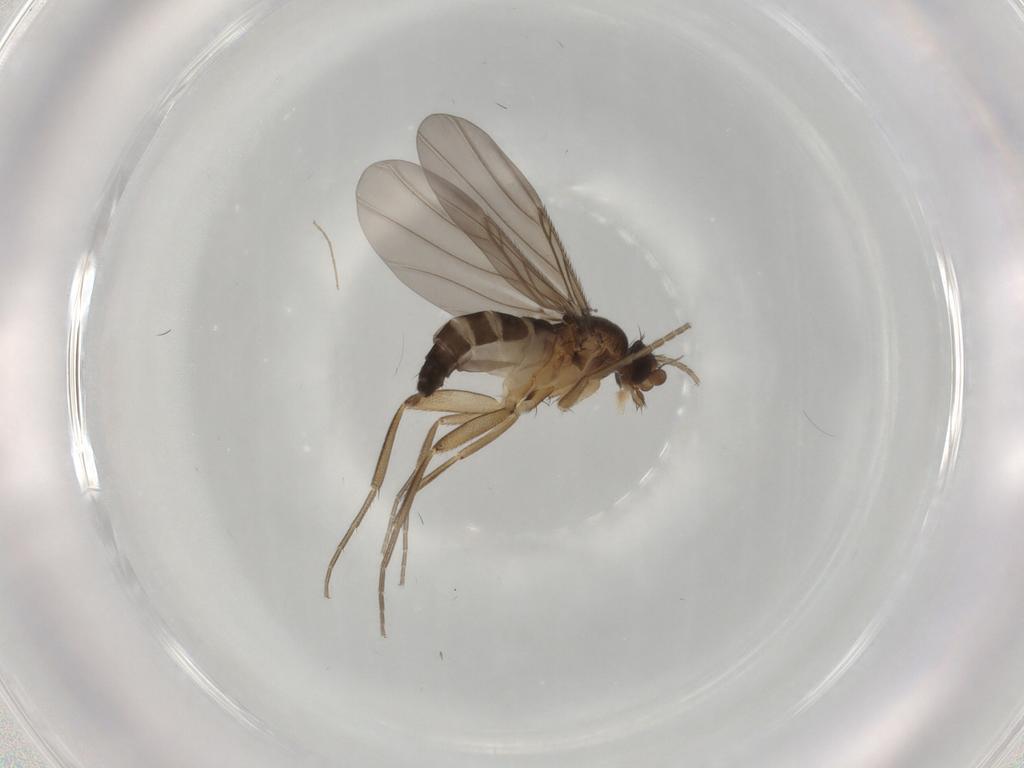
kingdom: Animalia
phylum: Arthropoda
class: Insecta
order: Diptera
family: Phoridae
